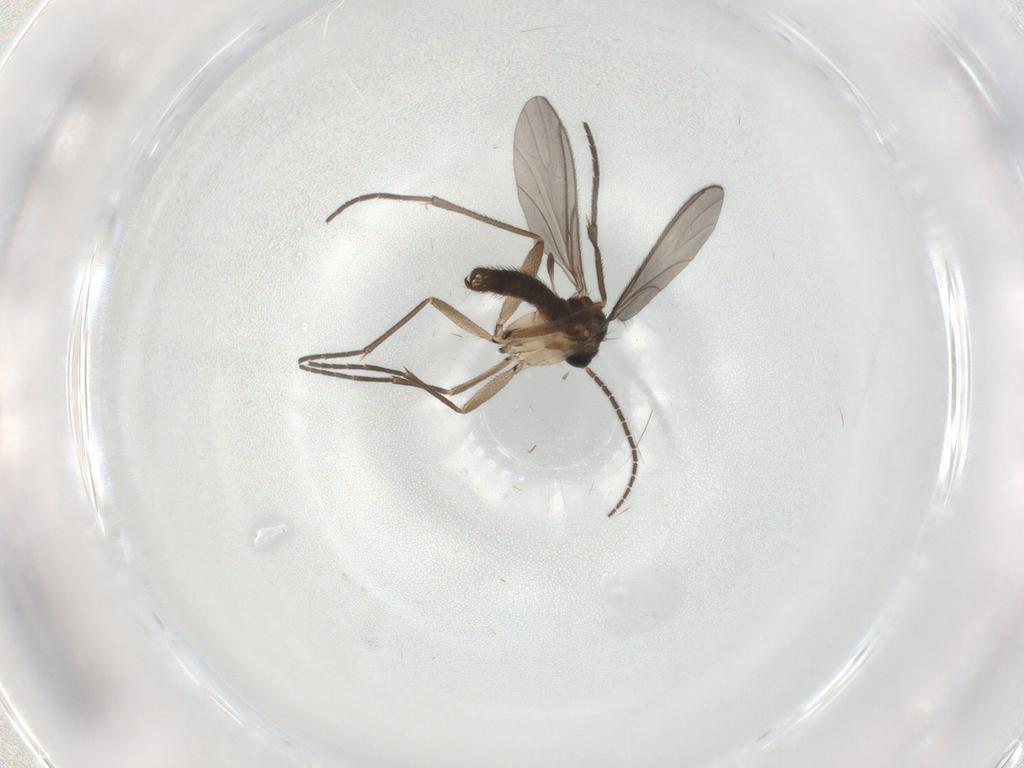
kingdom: Animalia
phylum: Arthropoda
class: Insecta
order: Diptera
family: Sciaridae
